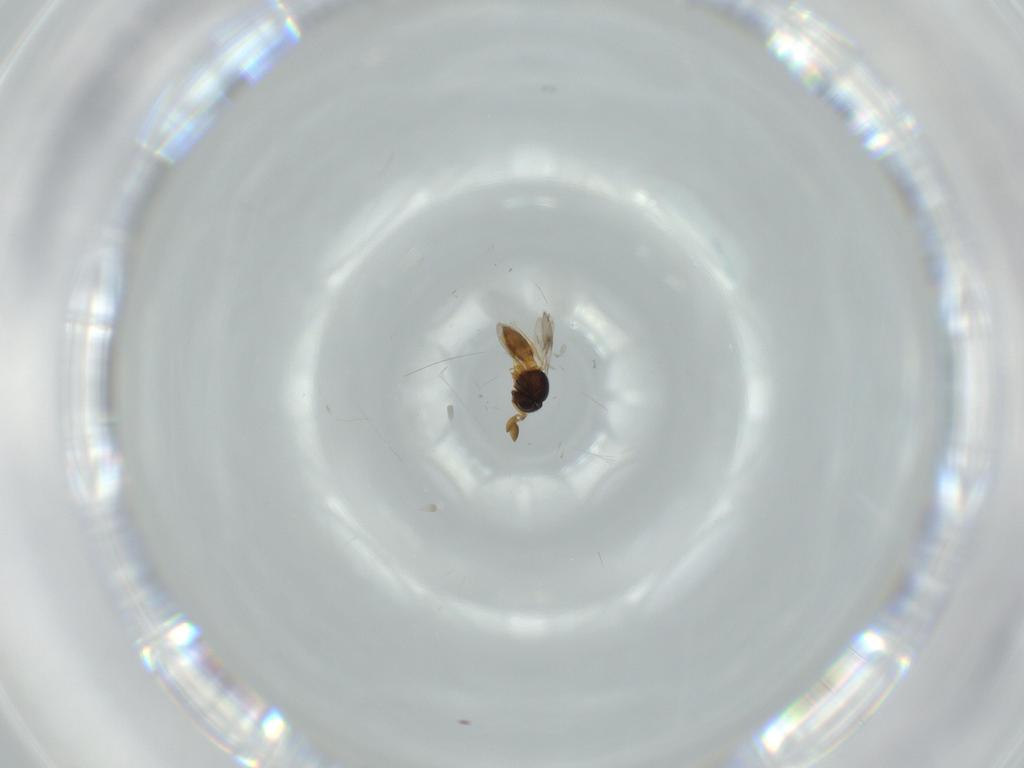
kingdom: Animalia
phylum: Arthropoda
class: Insecta
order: Hymenoptera
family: Scelionidae
